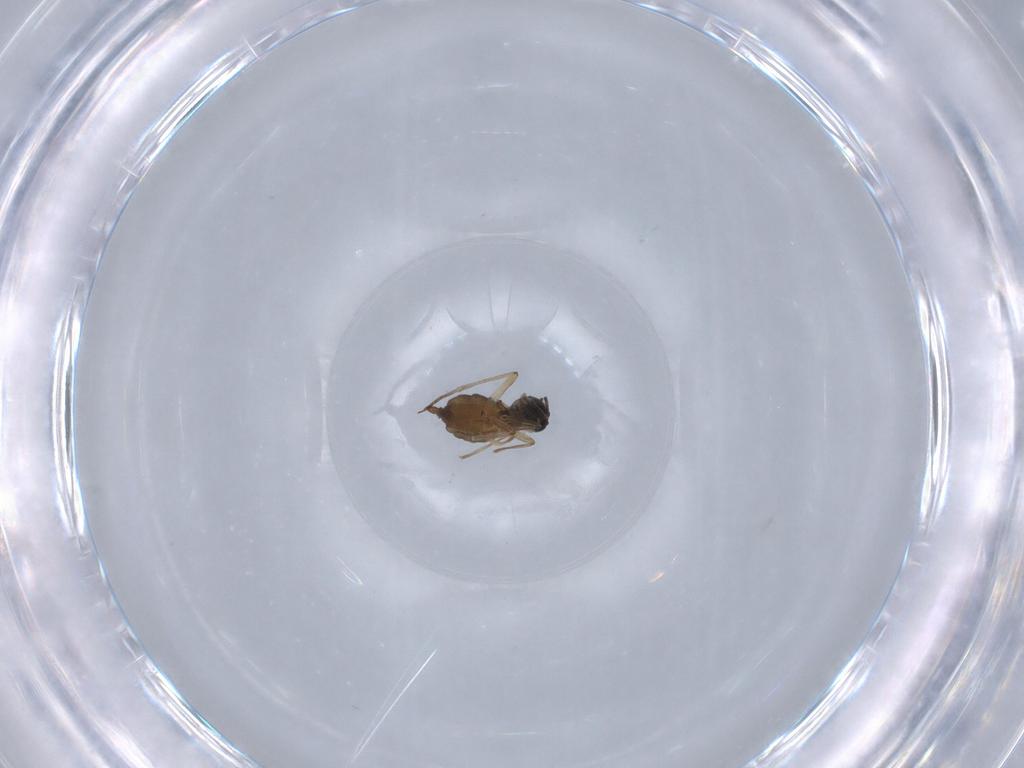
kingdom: Animalia
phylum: Arthropoda
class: Insecta
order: Diptera
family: Sciaridae
